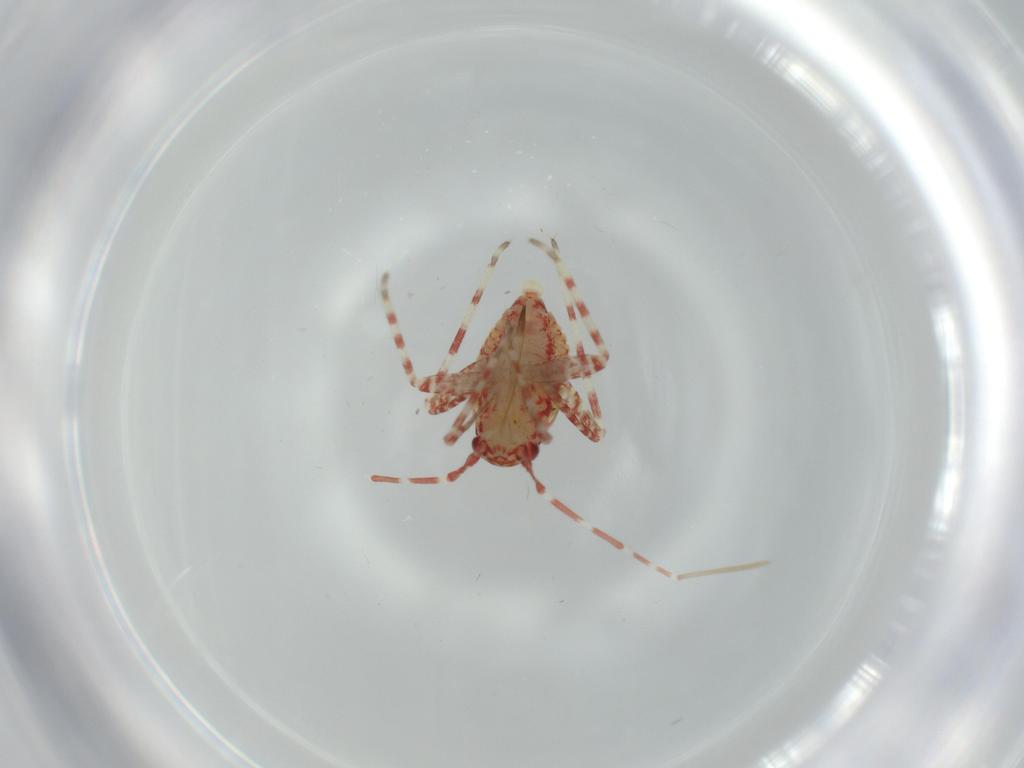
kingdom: Animalia
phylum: Arthropoda
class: Insecta
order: Hemiptera
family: Miridae
